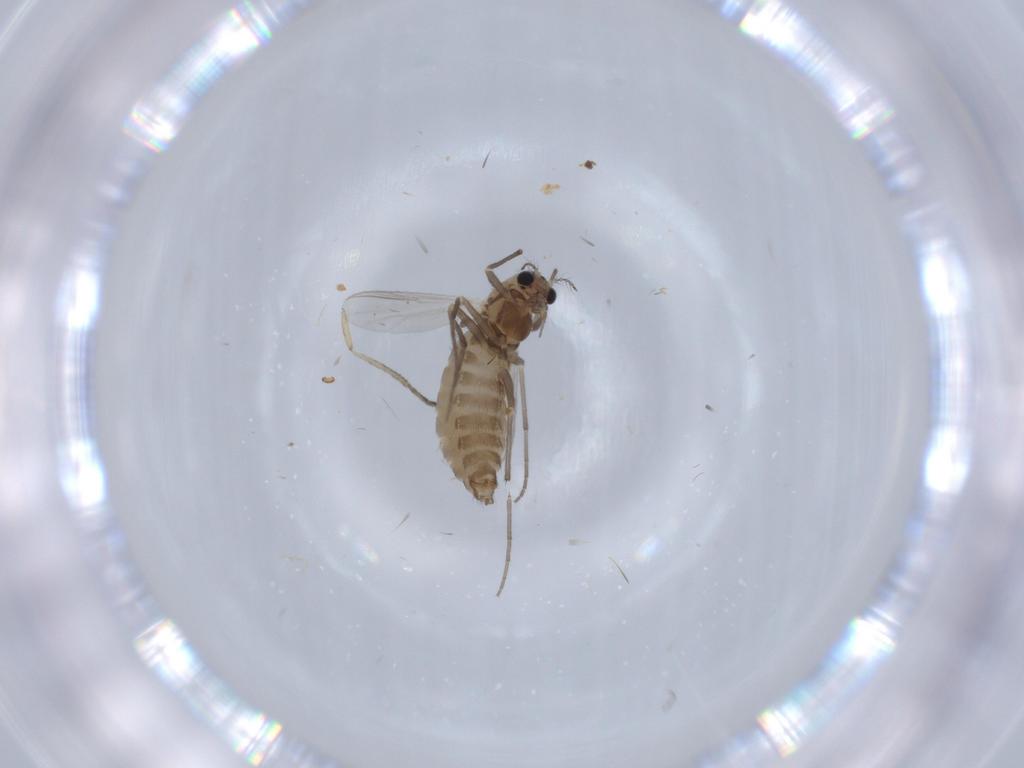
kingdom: Animalia
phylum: Arthropoda
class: Insecta
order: Diptera
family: Chironomidae
